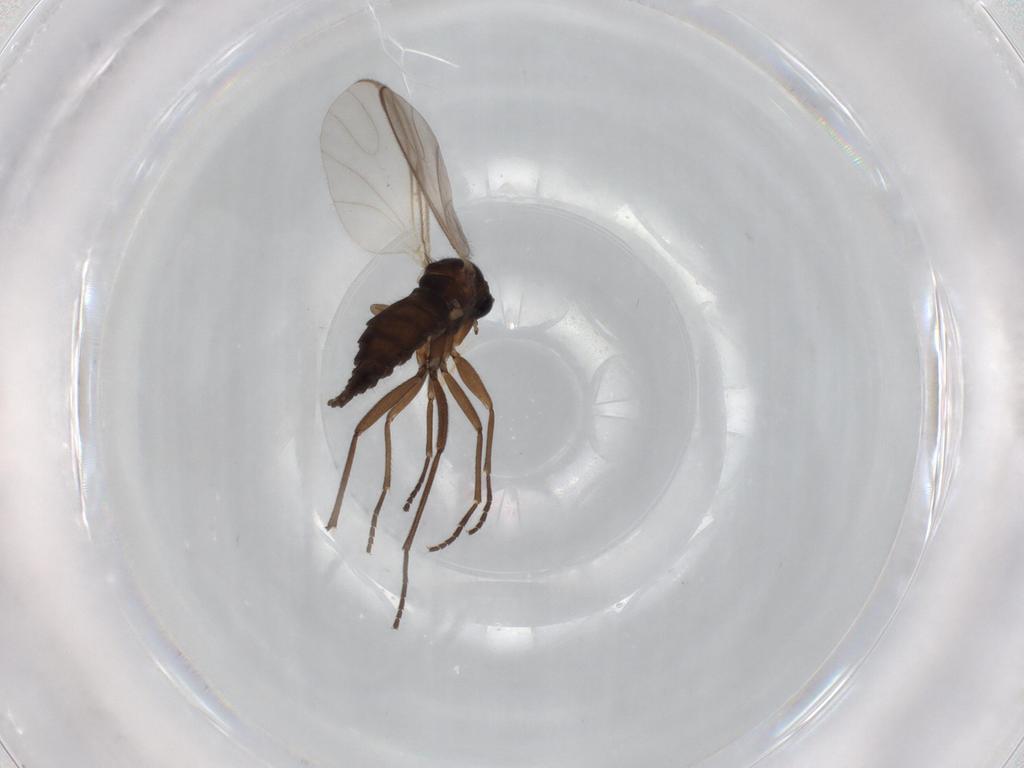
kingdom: Animalia
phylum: Arthropoda
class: Insecta
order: Diptera
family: Sciaridae
